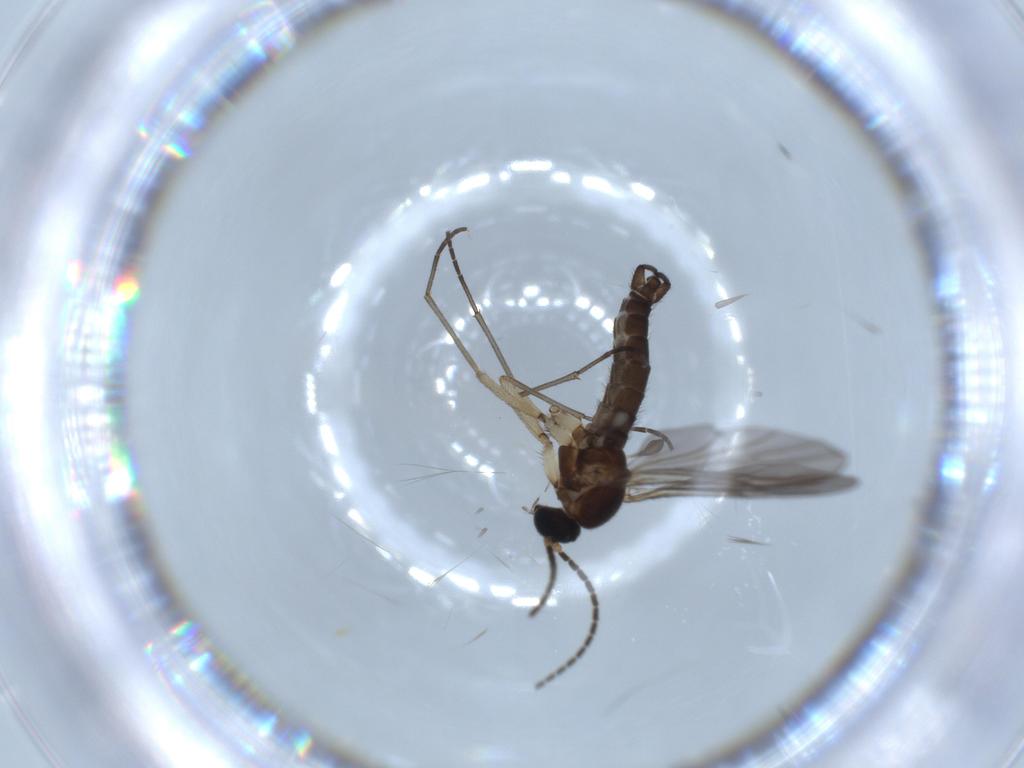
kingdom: Animalia
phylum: Arthropoda
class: Insecta
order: Diptera
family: Sciaridae
